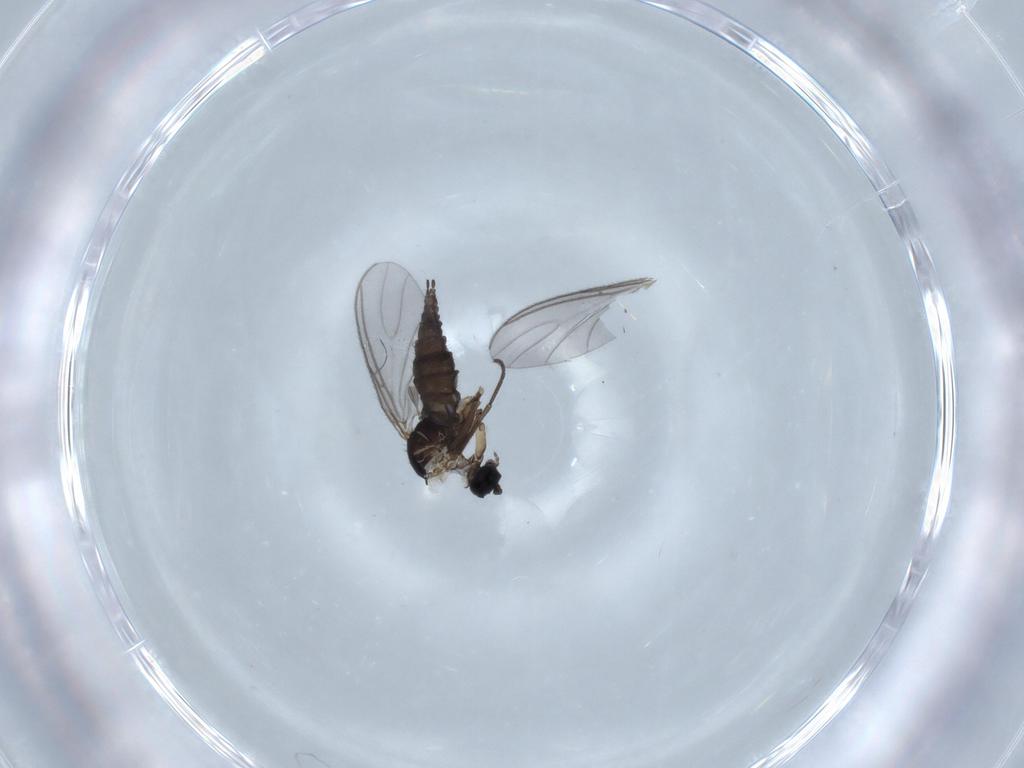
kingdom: Animalia
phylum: Arthropoda
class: Insecta
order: Diptera
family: Sciaridae
